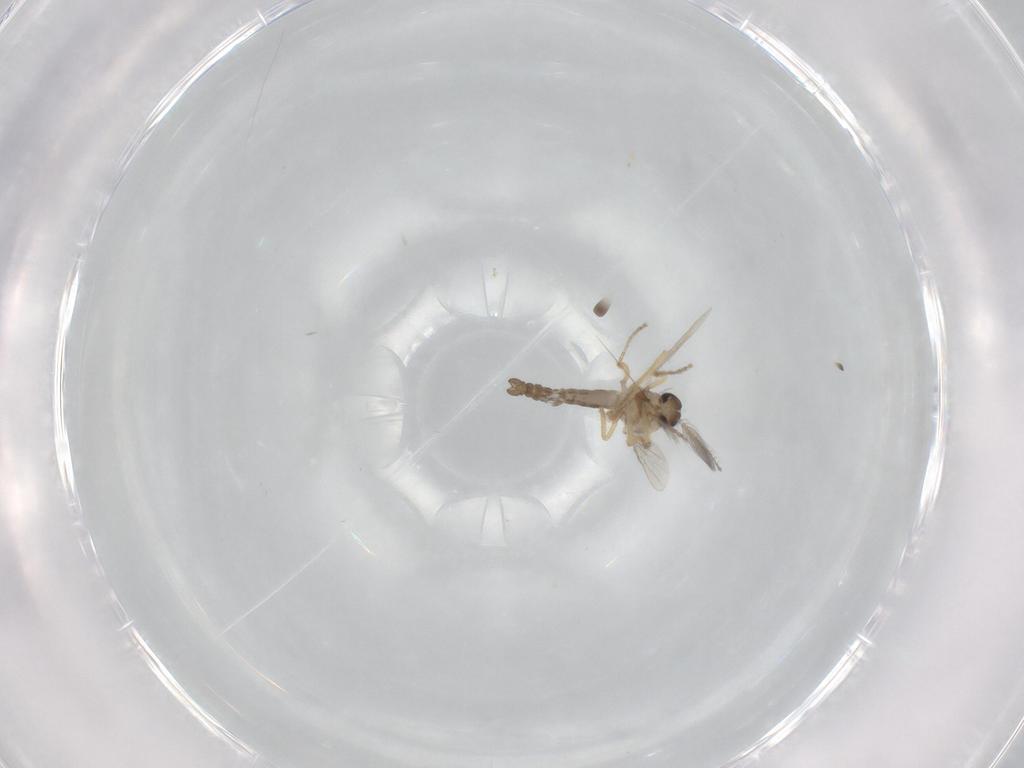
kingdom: Animalia
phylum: Arthropoda
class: Insecta
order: Diptera
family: Ceratopogonidae
